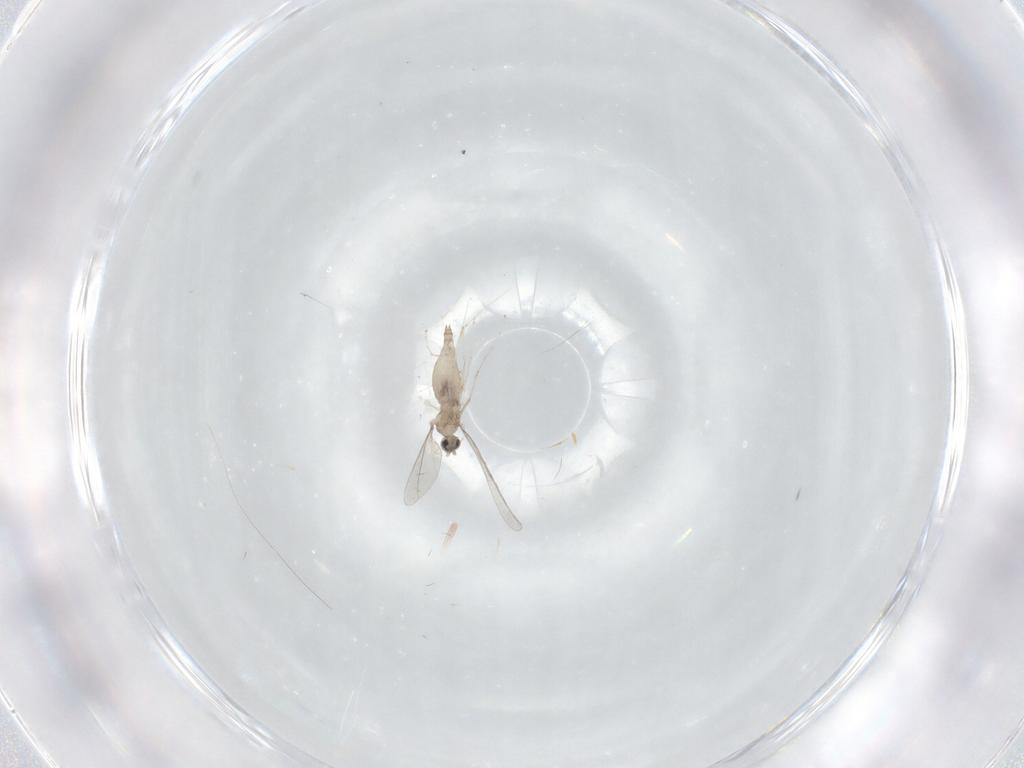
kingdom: Animalia
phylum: Arthropoda
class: Insecta
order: Diptera
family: Cecidomyiidae
